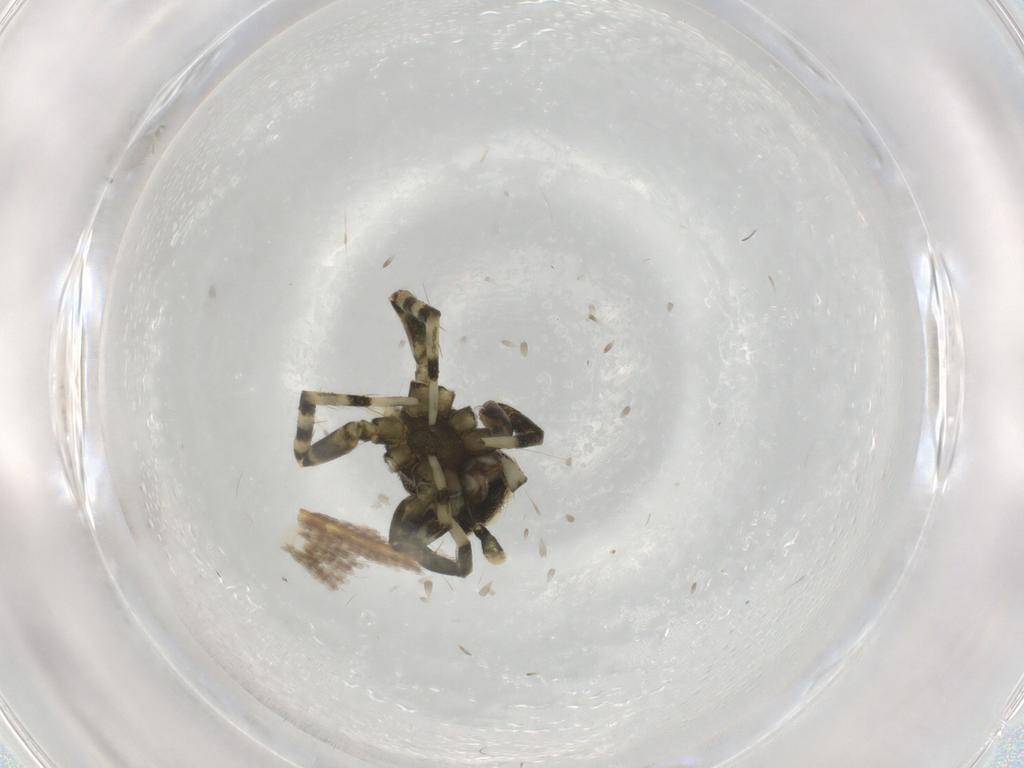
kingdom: Animalia
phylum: Arthropoda
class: Arachnida
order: Araneae
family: Salticidae
